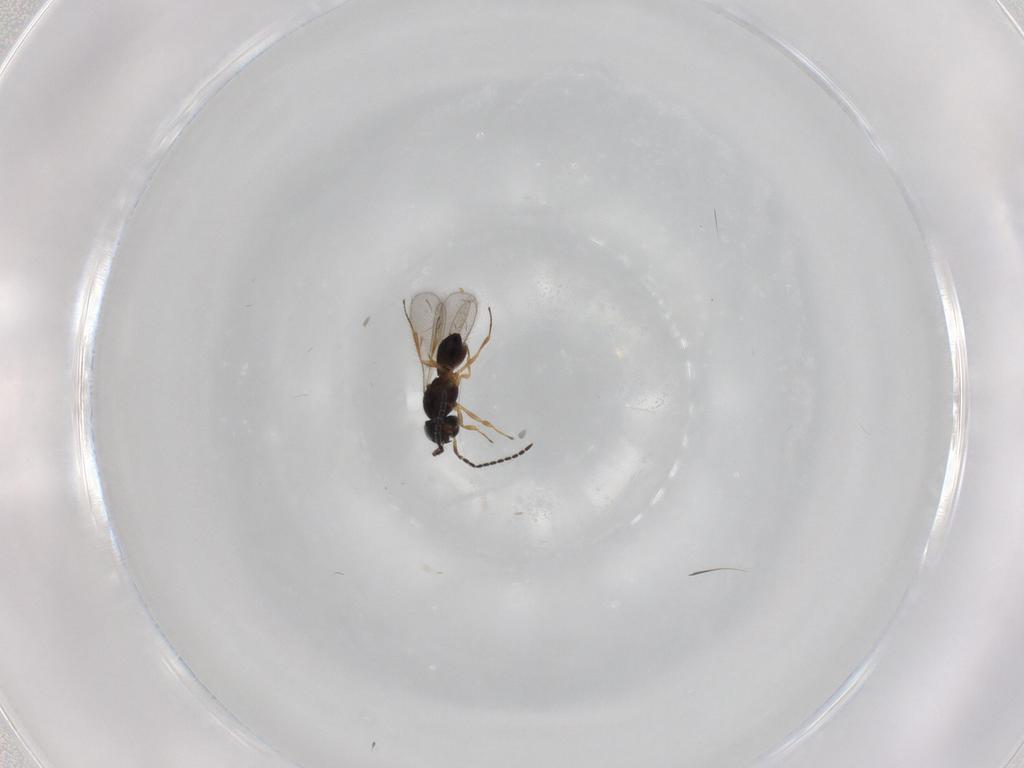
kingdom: Animalia
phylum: Arthropoda
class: Insecta
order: Hymenoptera
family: Scelionidae
